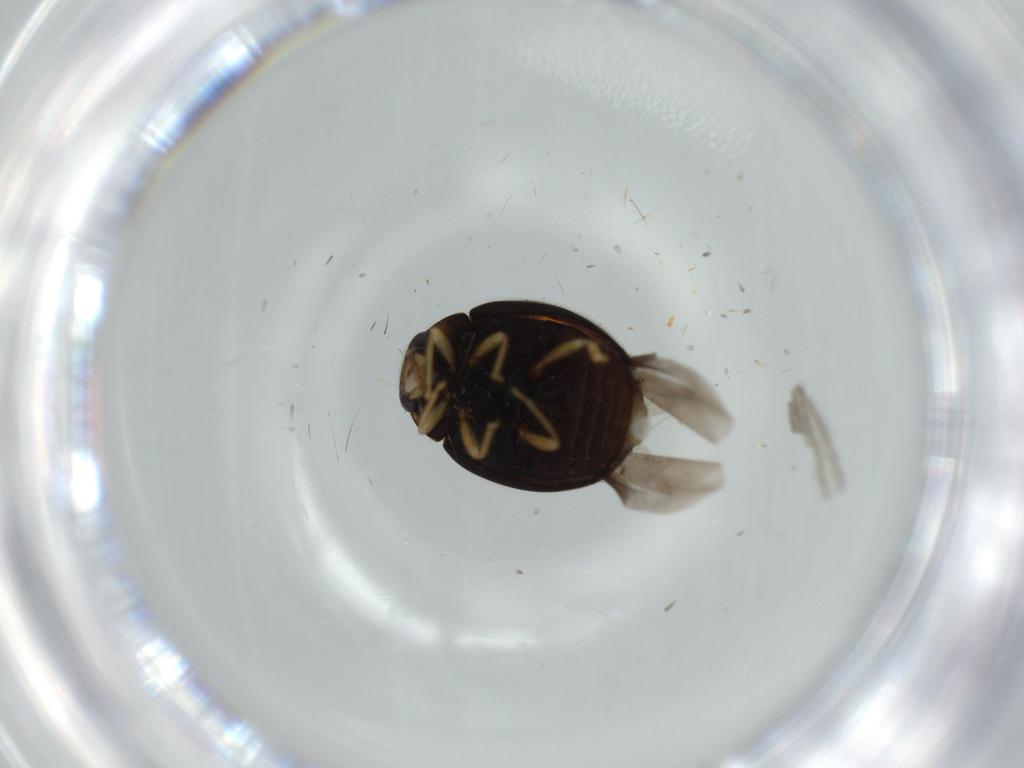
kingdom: Animalia
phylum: Arthropoda
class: Insecta
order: Coleoptera
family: Coccinellidae
